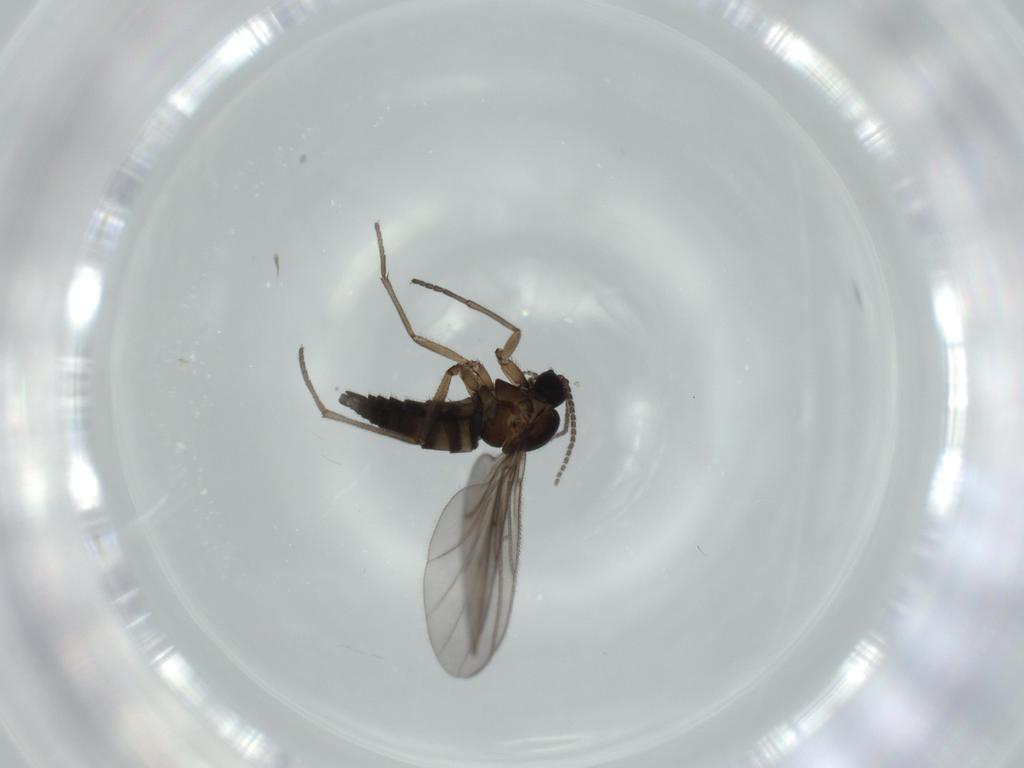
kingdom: Animalia
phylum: Arthropoda
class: Insecta
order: Diptera
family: Sciaridae
